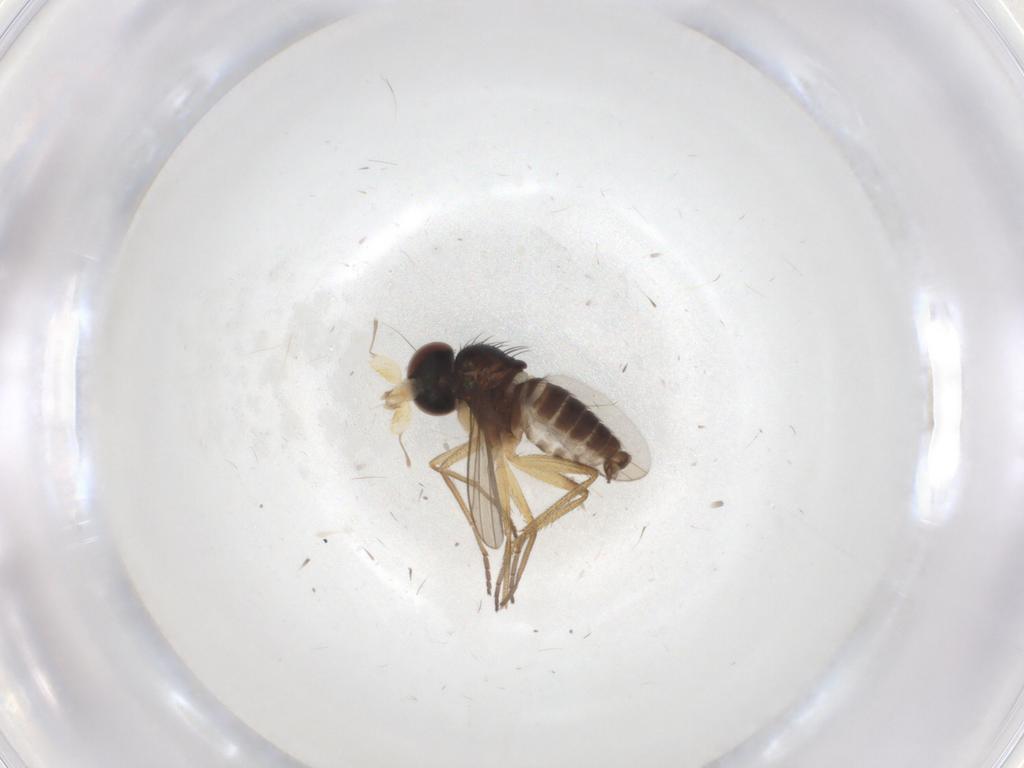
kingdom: Animalia
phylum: Arthropoda
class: Insecta
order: Diptera
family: Dolichopodidae
